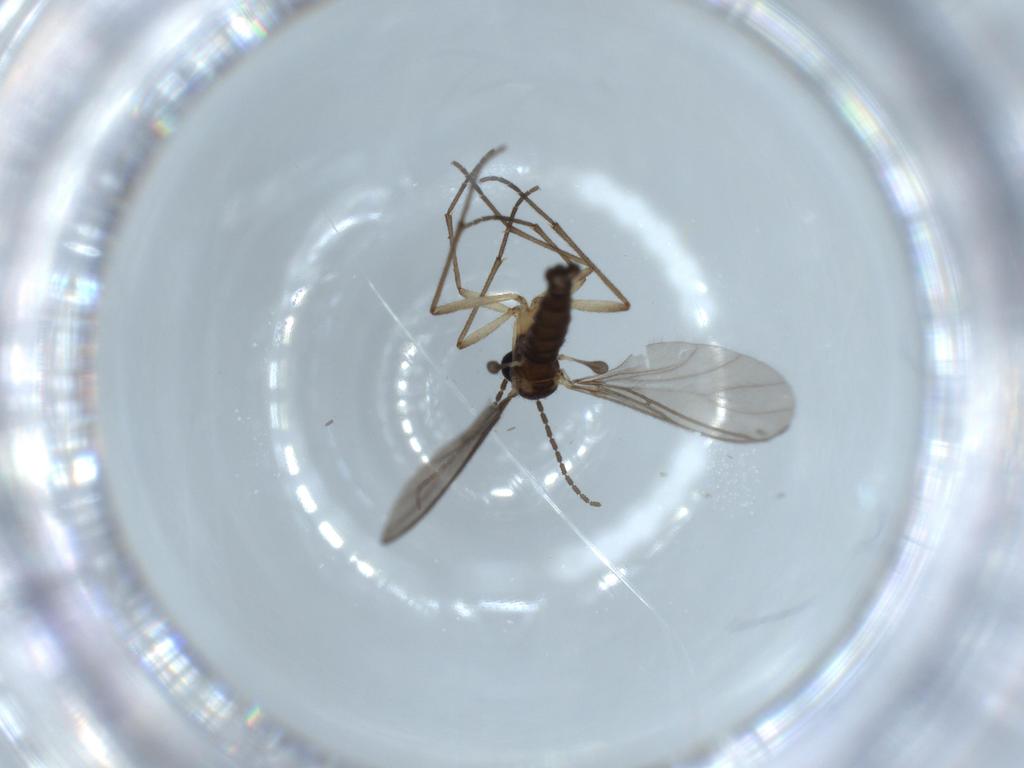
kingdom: Animalia
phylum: Arthropoda
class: Insecta
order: Diptera
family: Sciaridae
